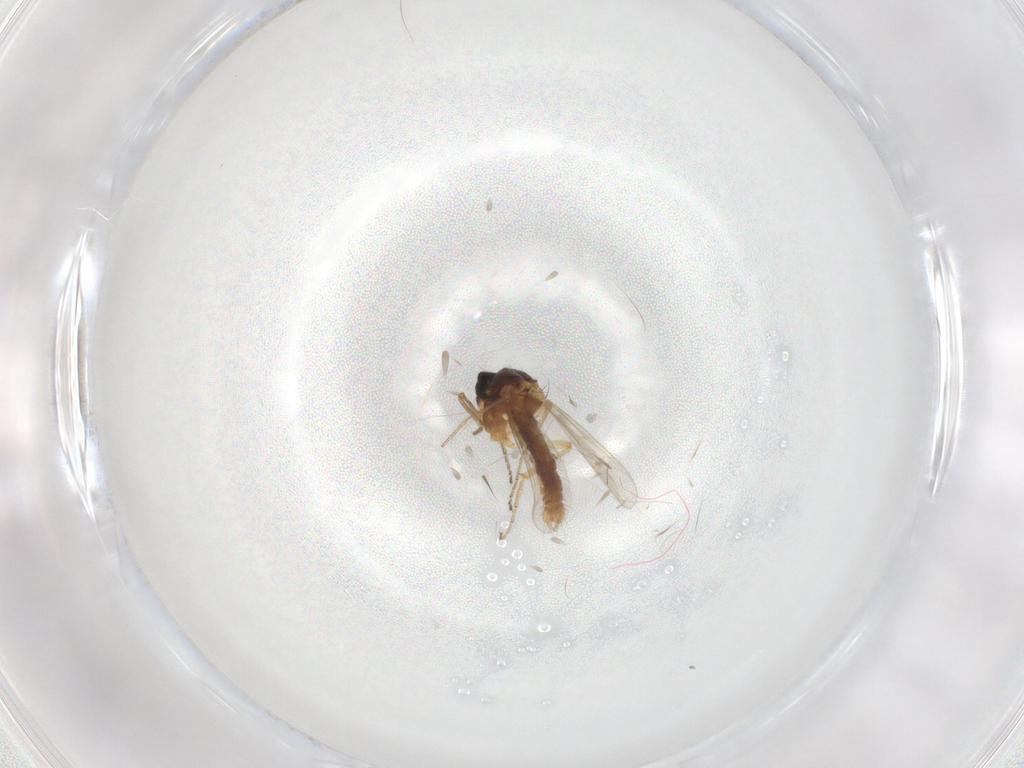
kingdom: Animalia
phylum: Arthropoda
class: Insecta
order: Diptera
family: Ceratopogonidae
